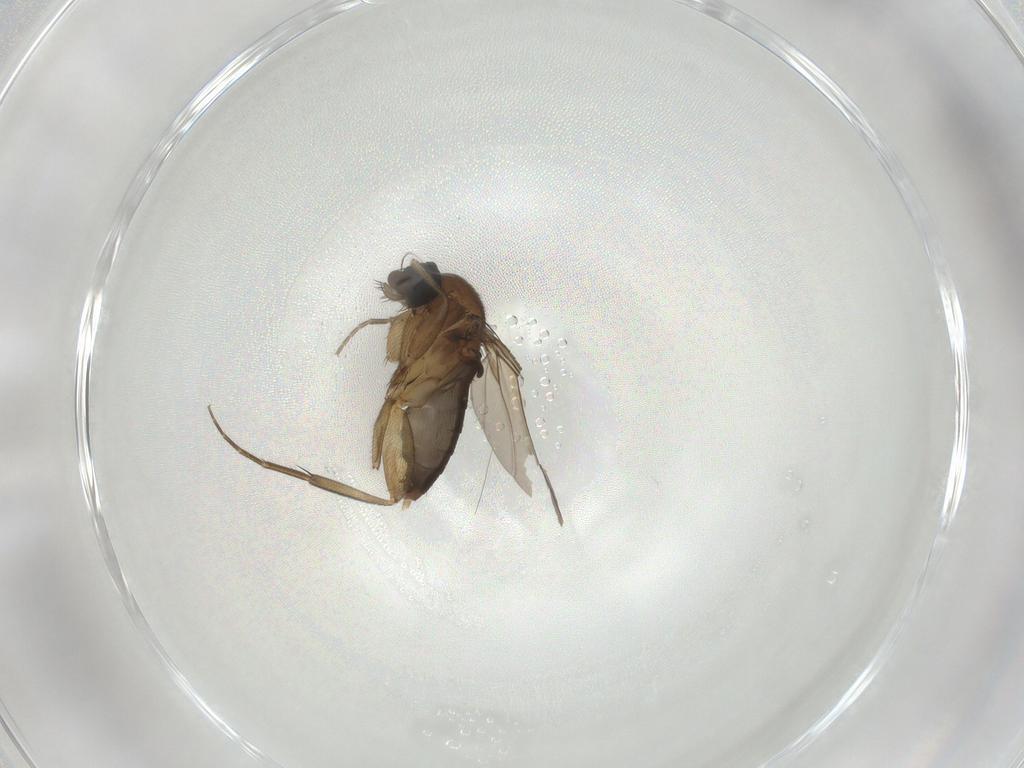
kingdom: Animalia
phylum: Arthropoda
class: Insecta
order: Diptera
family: Phoridae
